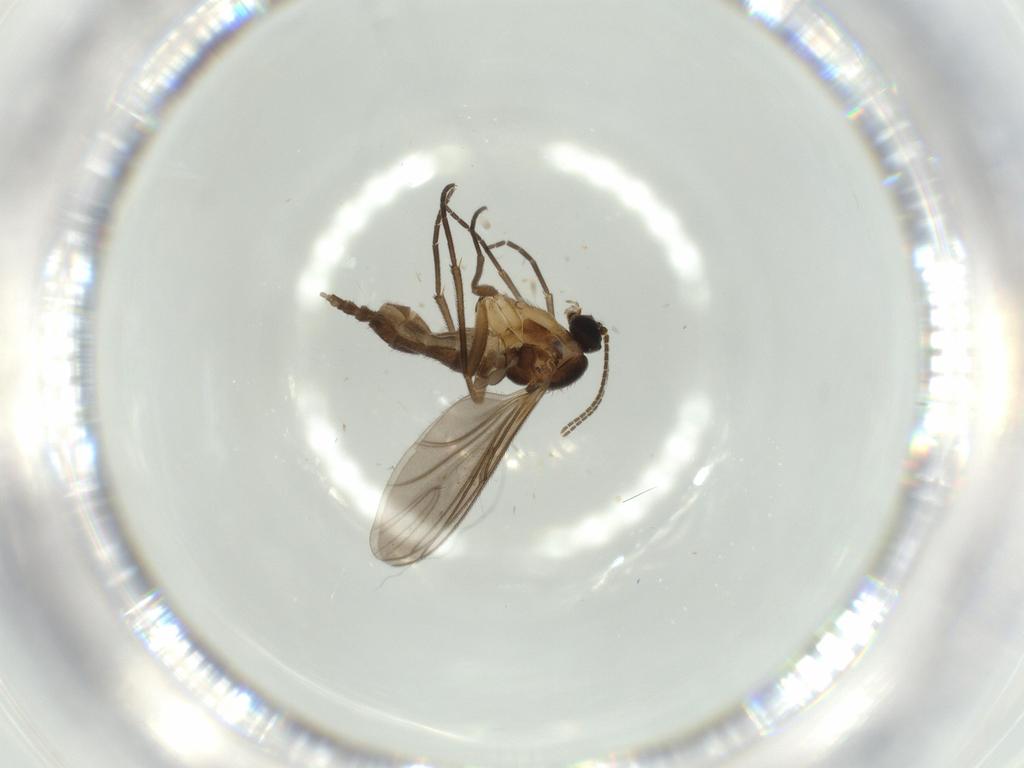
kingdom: Animalia
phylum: Arthropoda
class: Insecta
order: Diptera
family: Sciaridae
